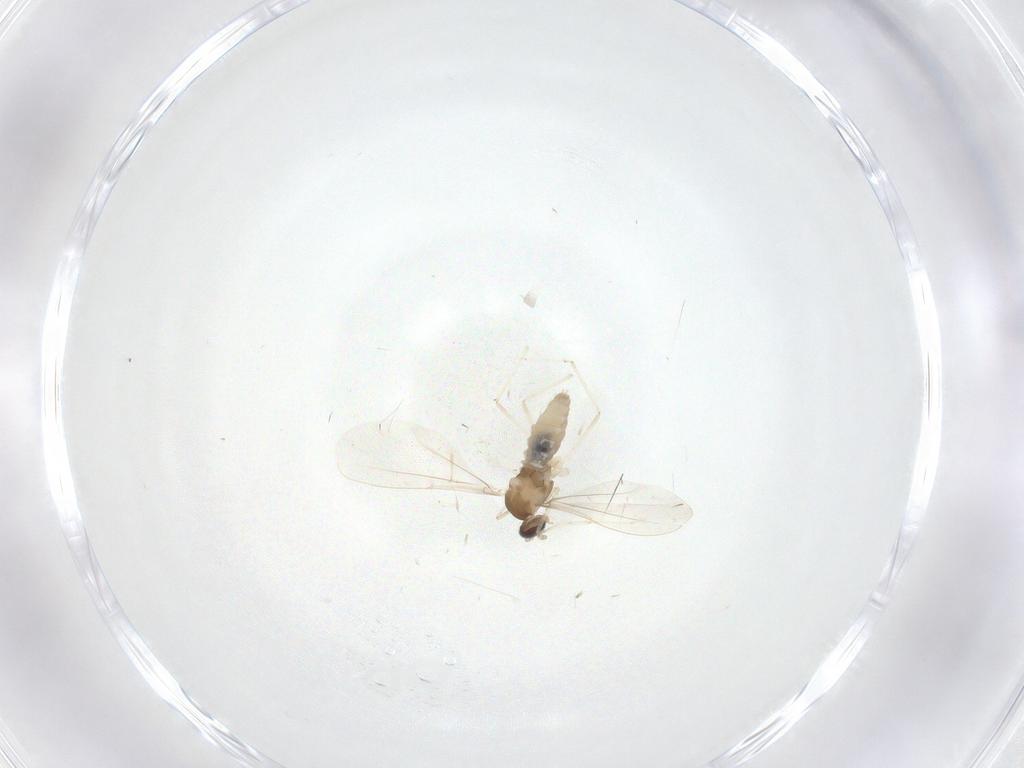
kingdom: Animalia
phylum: Arthropoda
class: Insecta
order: Diptera
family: Cecidomyiidae
